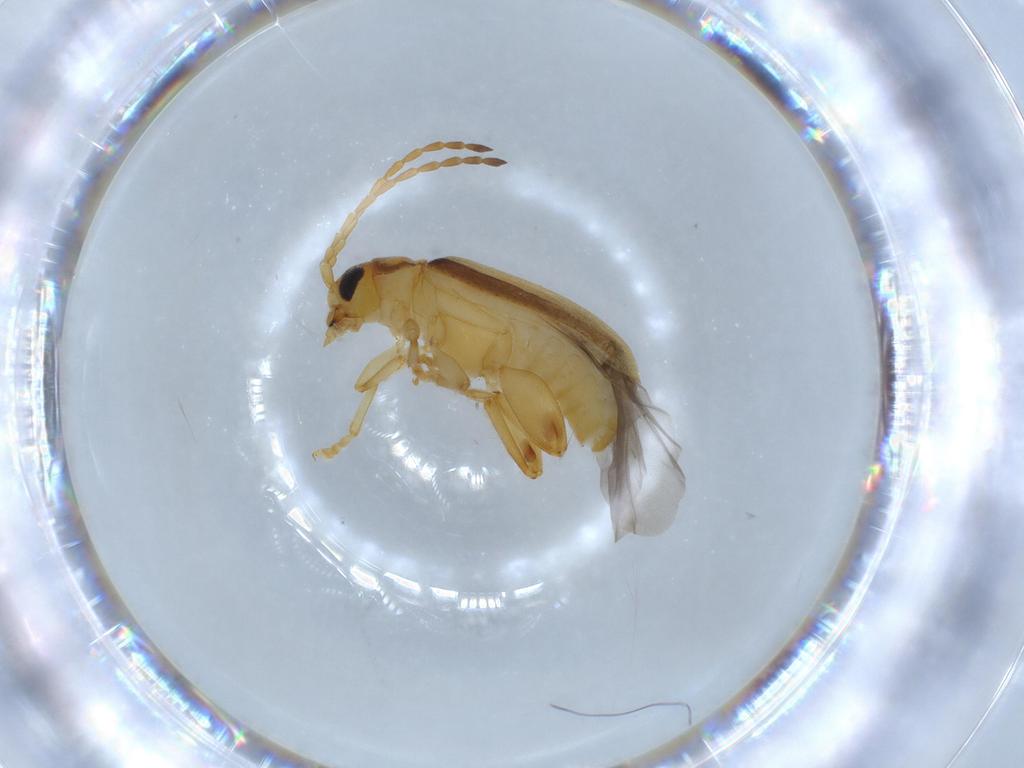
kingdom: Animalia
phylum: Arthropoda
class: Insecta
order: Coleoptera
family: Chrysomelidae
